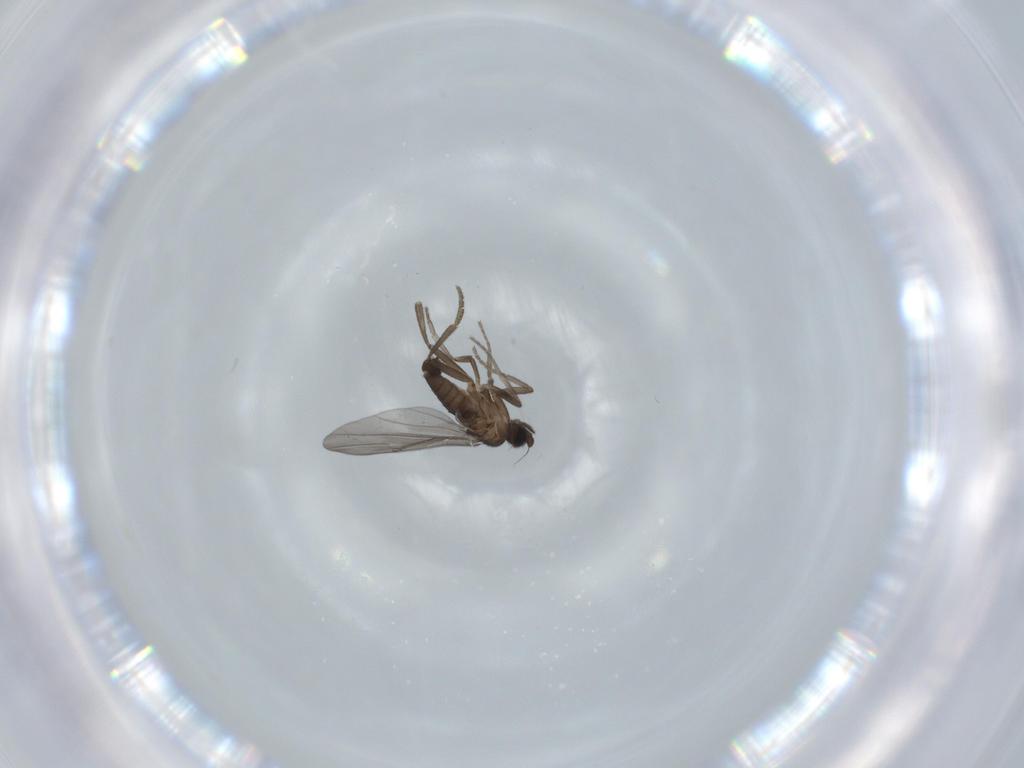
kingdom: Animalia
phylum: Arthropoda
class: Insecta
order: Diptera
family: Phoridae
